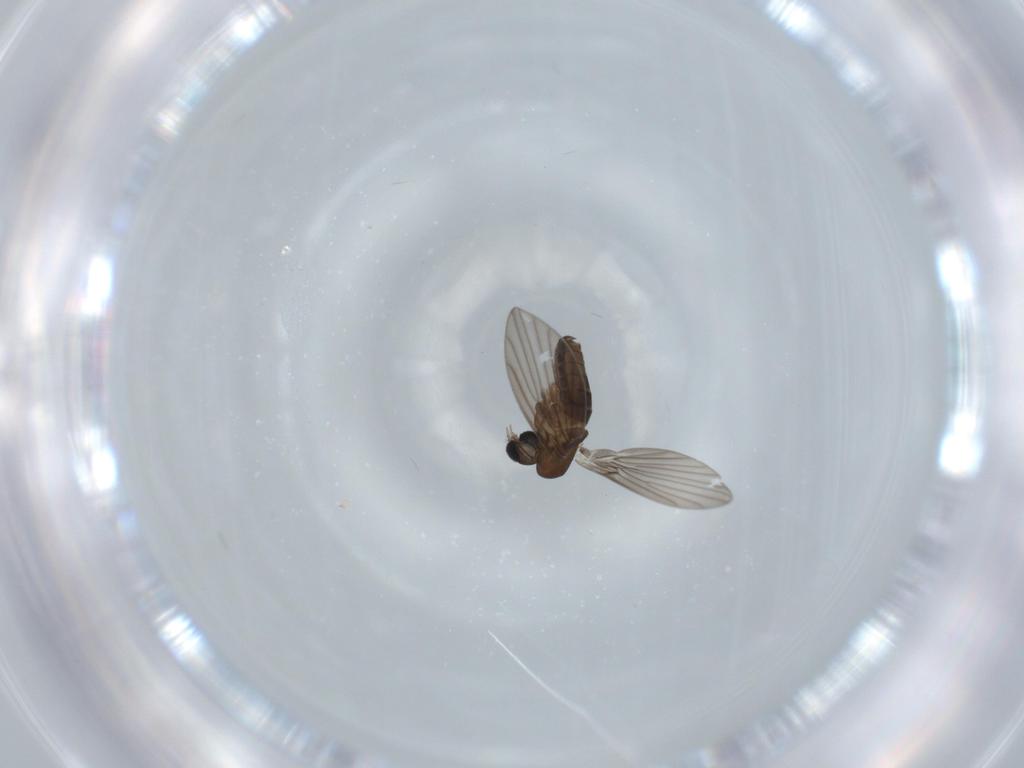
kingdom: Animalia
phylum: Arthropoda
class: Insecta
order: Diptera
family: Psychodidae
